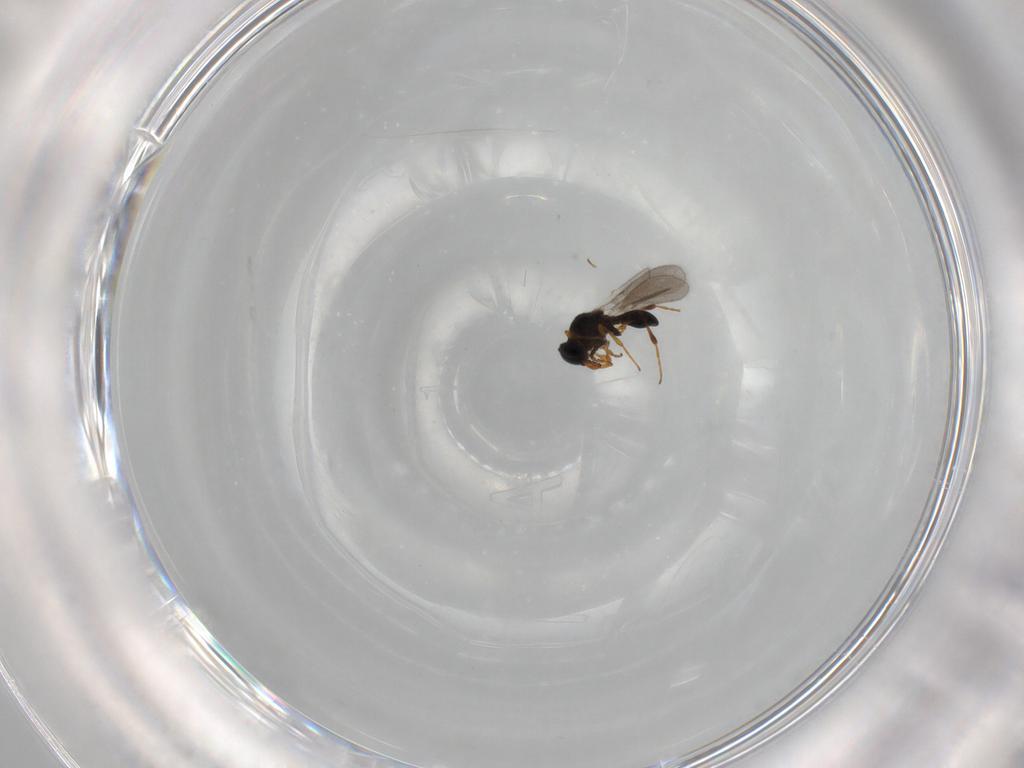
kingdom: Animalia
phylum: Arthropoda
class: Insecta
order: Hymenoptera
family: Platygastridae
